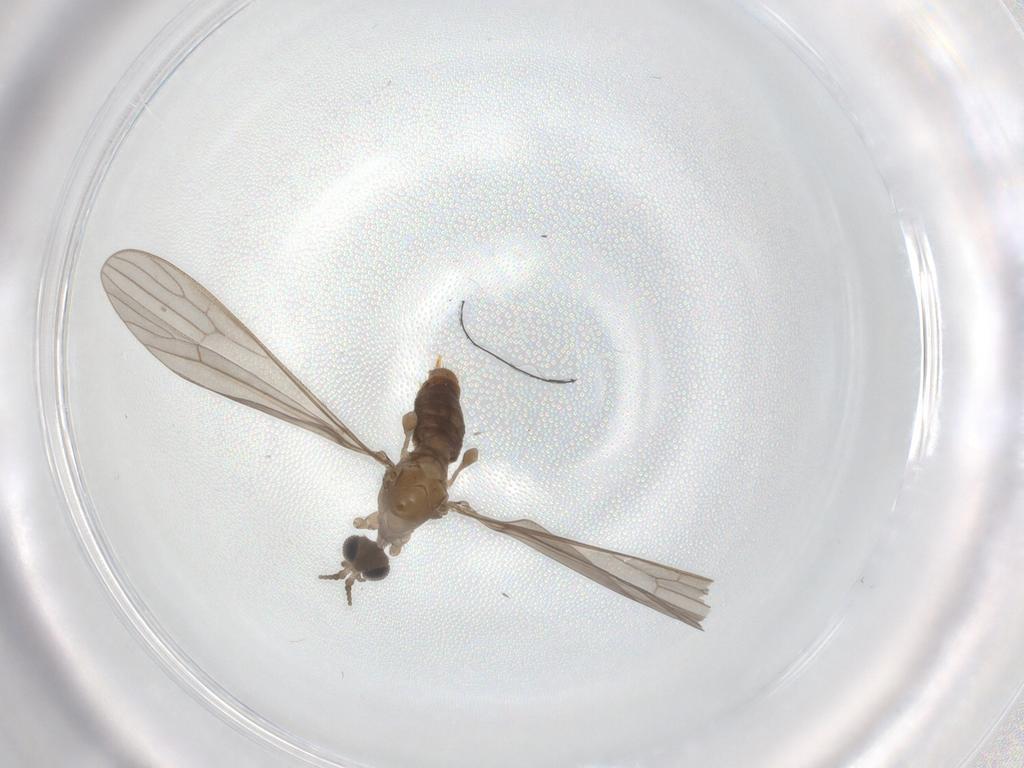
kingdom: Animalia
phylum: Arthropoda
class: Insecta
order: Diptera
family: Limoniidae
